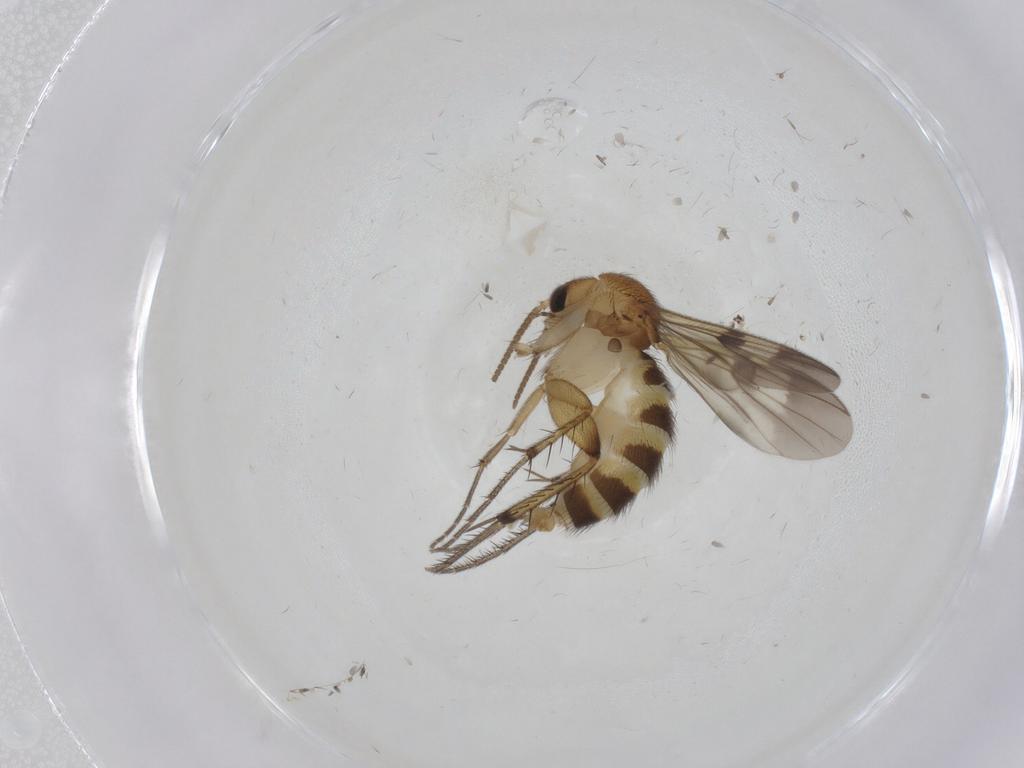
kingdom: Animalia
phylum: Arthropoda
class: Insecta
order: Diptera
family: Mycetophilidae
